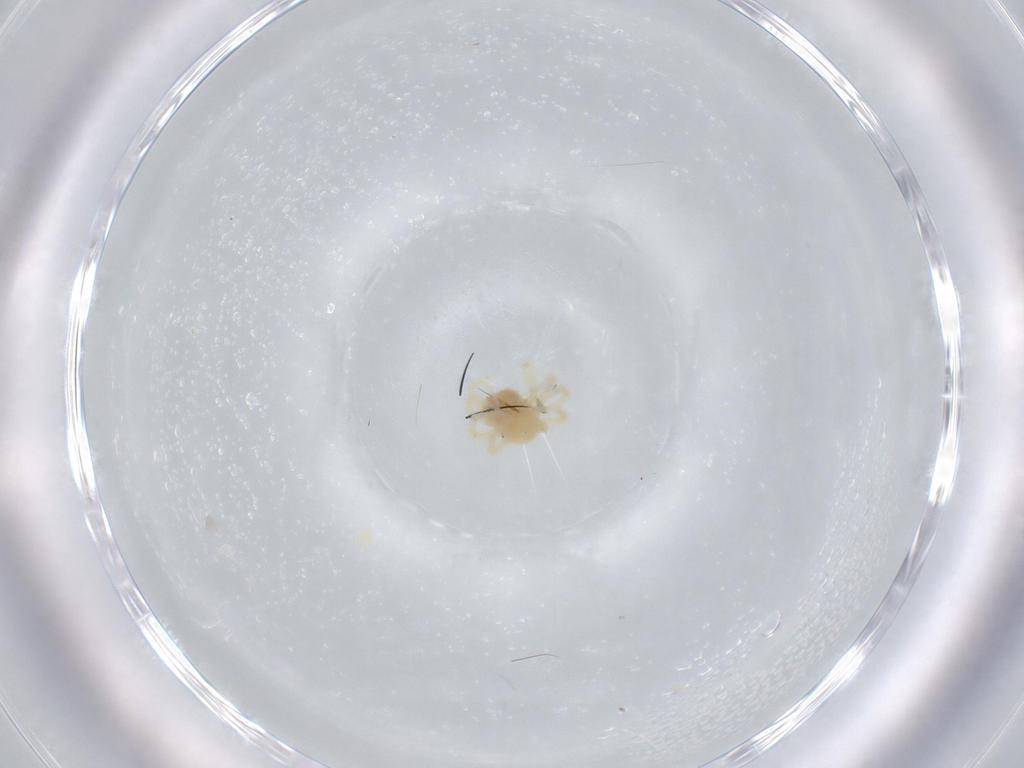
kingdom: Animalia
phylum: Arthropoda
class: Arachnida
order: Trombidiformes
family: Anystidae
